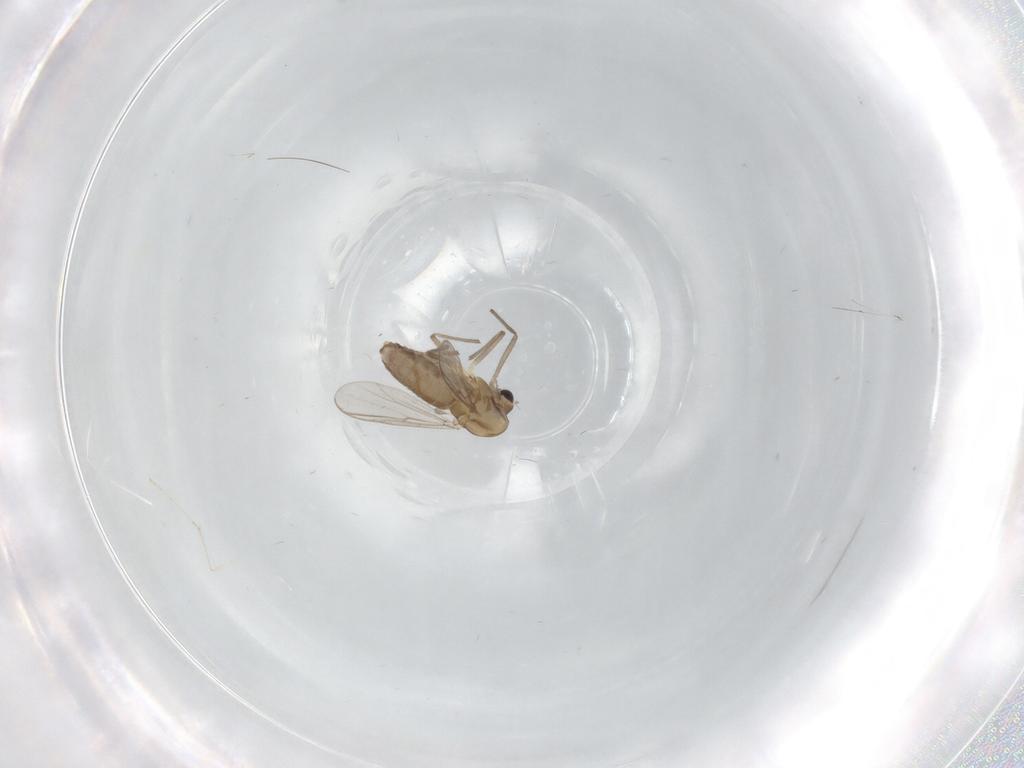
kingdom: Animalia
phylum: Arthropoda
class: Insecta
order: Diptera
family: Chironomidae
